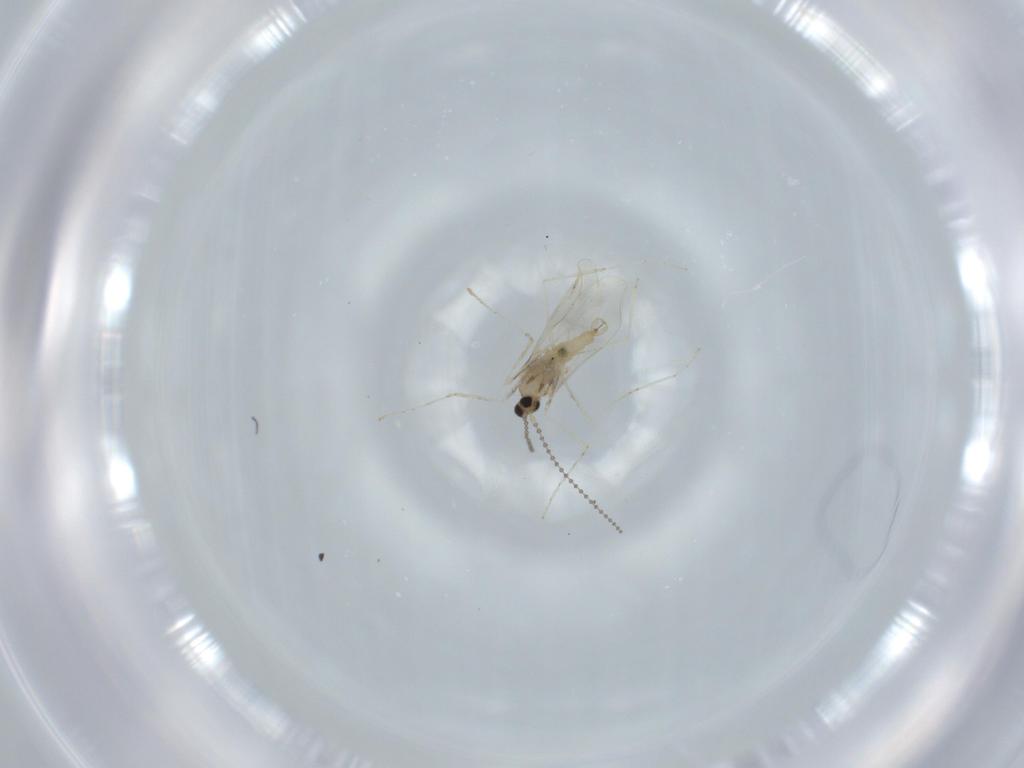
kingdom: Animalia
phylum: Arthropoda
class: Insecta
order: Diptera
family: Cecidomyiidae
